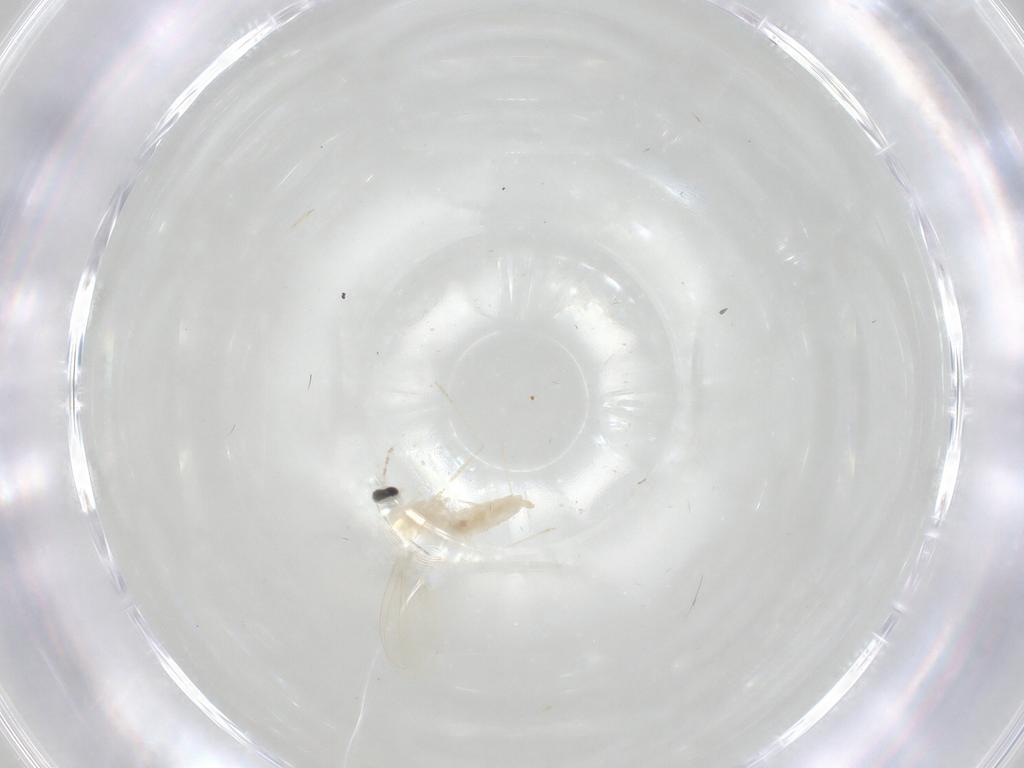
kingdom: Animalia
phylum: Arthropoda
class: Insecta
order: Diptera
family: Cecidomyiidae
